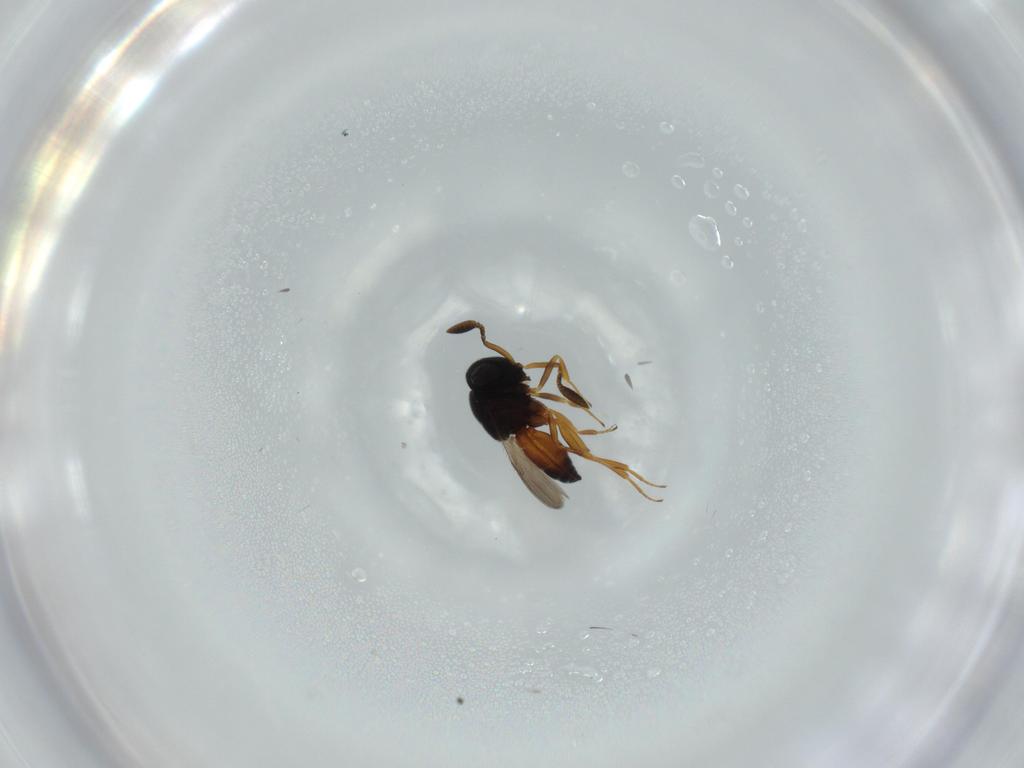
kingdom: Animalia
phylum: Arthropoda
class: Insecta
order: Hymenoptera
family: Scelionidae
